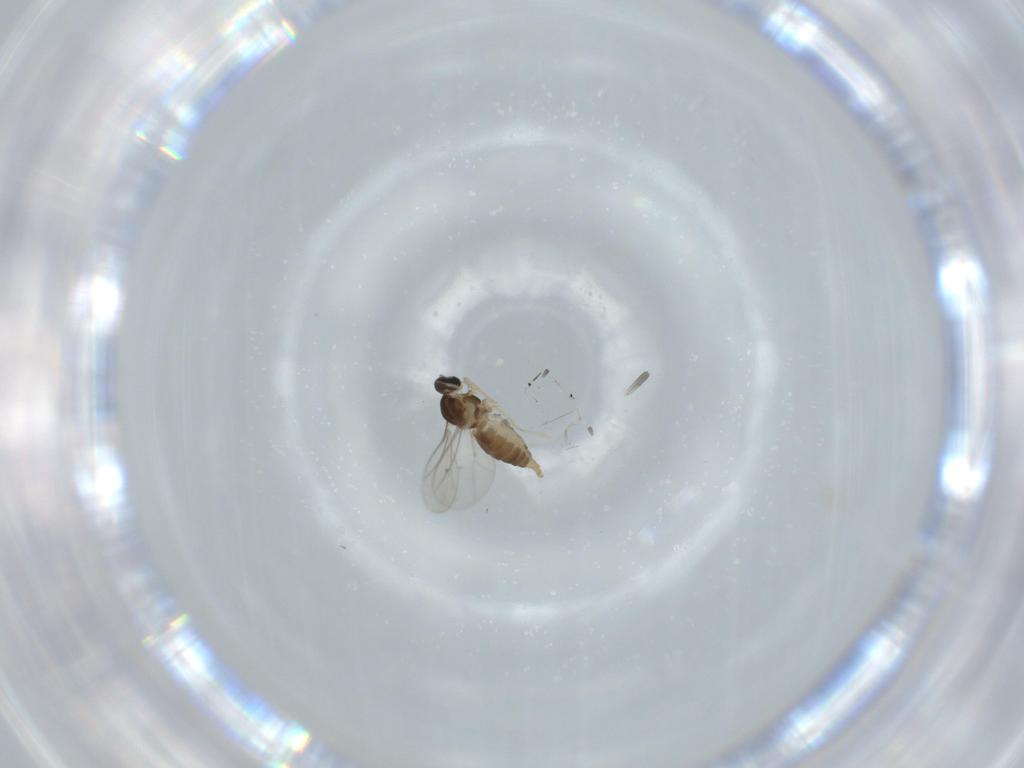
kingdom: Animalia
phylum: Arthropoda
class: Insecta
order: Diptera
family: Cecidomyiidae
